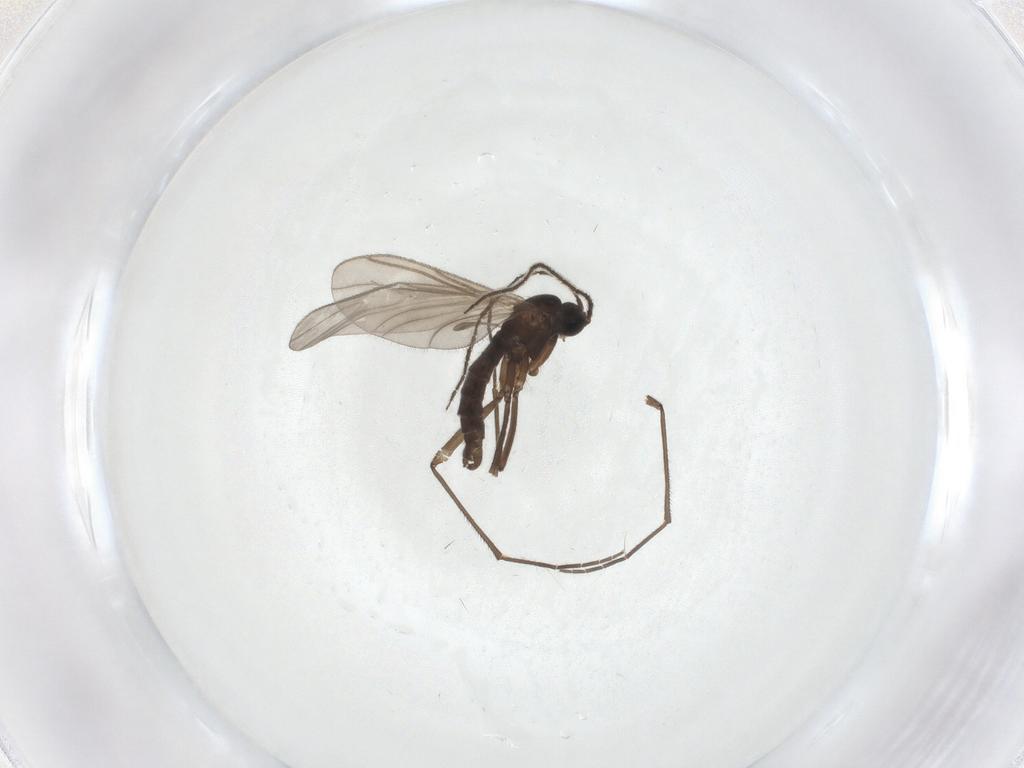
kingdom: Animalia
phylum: Arthropoda
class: Insecta
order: Diptera
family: Sciaridae
